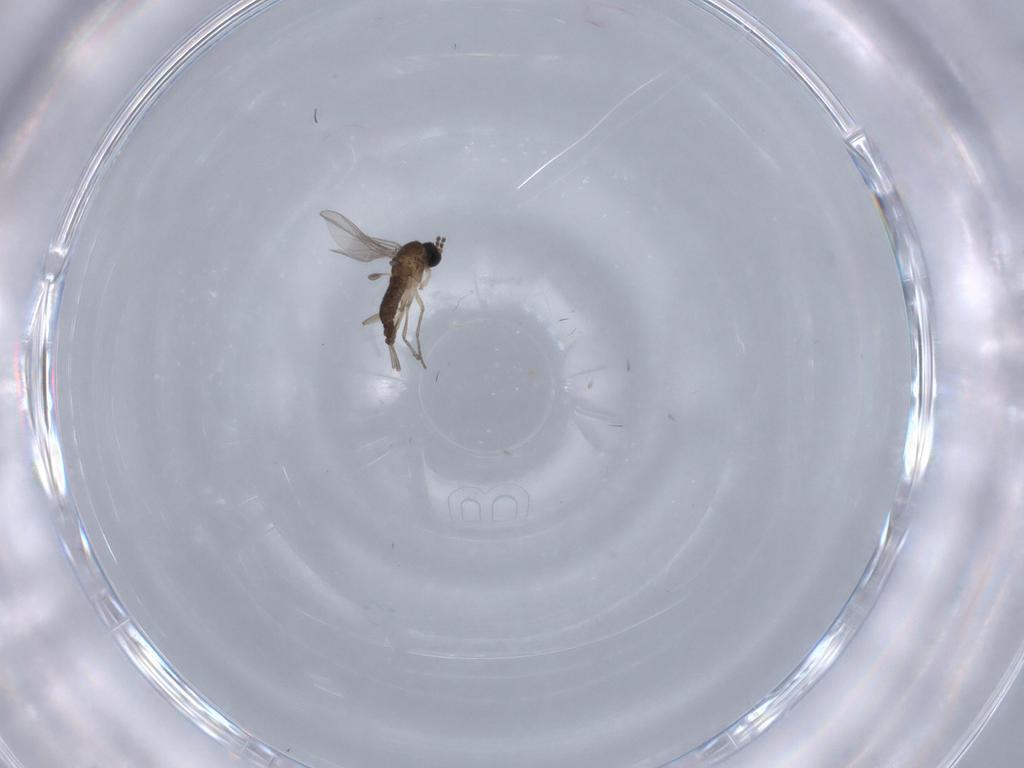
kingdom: Animalia
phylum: Arthropoda
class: Insecta
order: Diptera
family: Sciaridae
